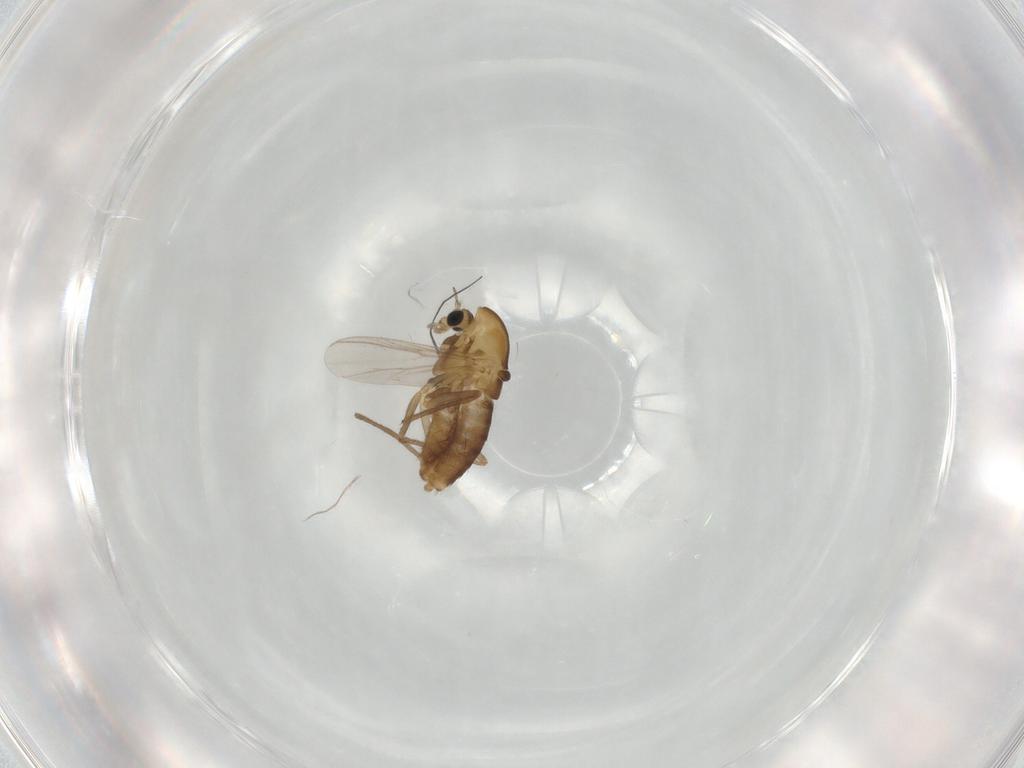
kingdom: Animalia
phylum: Arthropoda
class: Insecta
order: Diptera
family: Chironomidae
